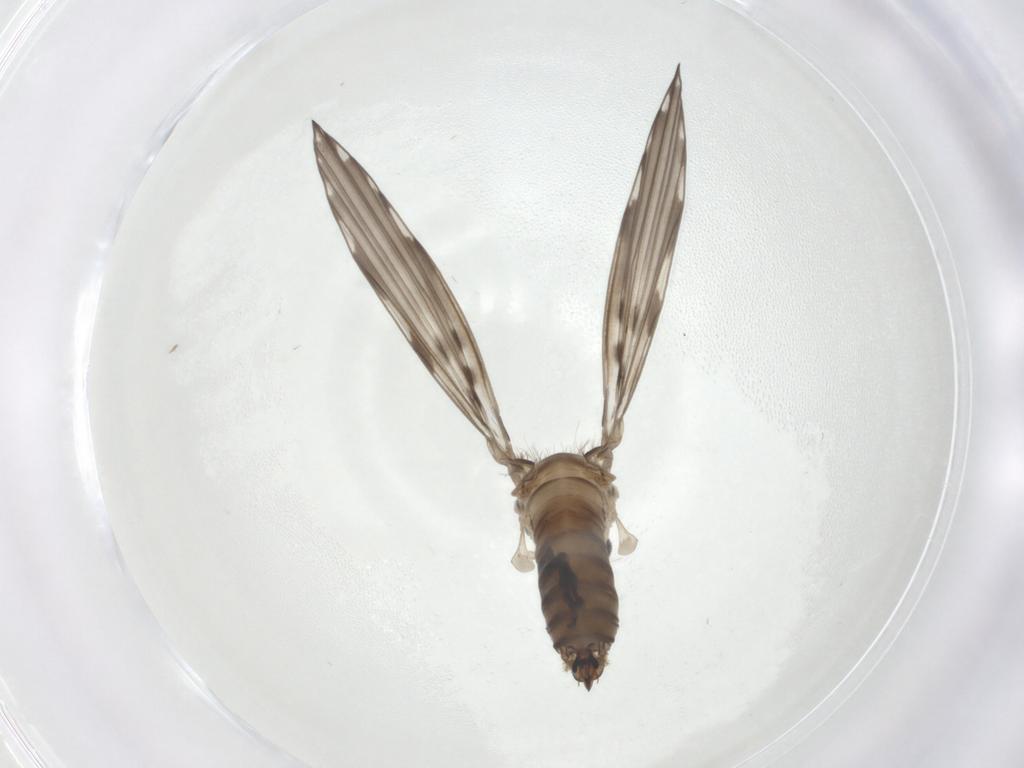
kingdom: Animalia
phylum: Arthropoda
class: Insecta
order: Diptera
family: Psychodidae
